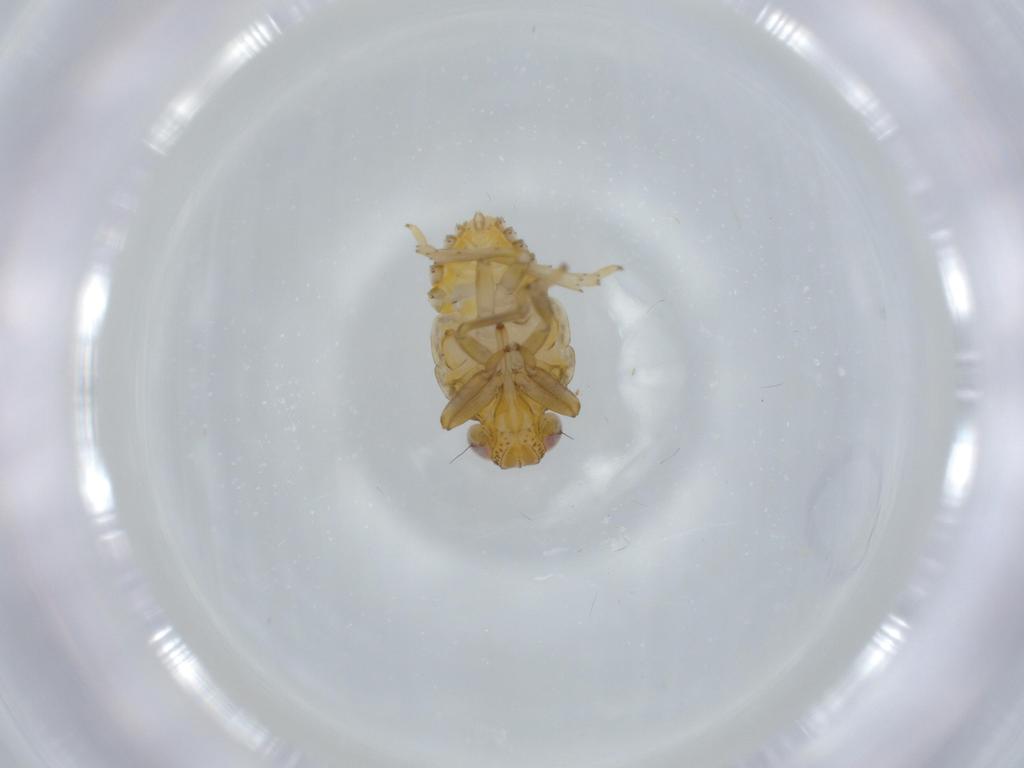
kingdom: Animalia
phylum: Arthropoda
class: Insecta
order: Hemiptera
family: Issidae
